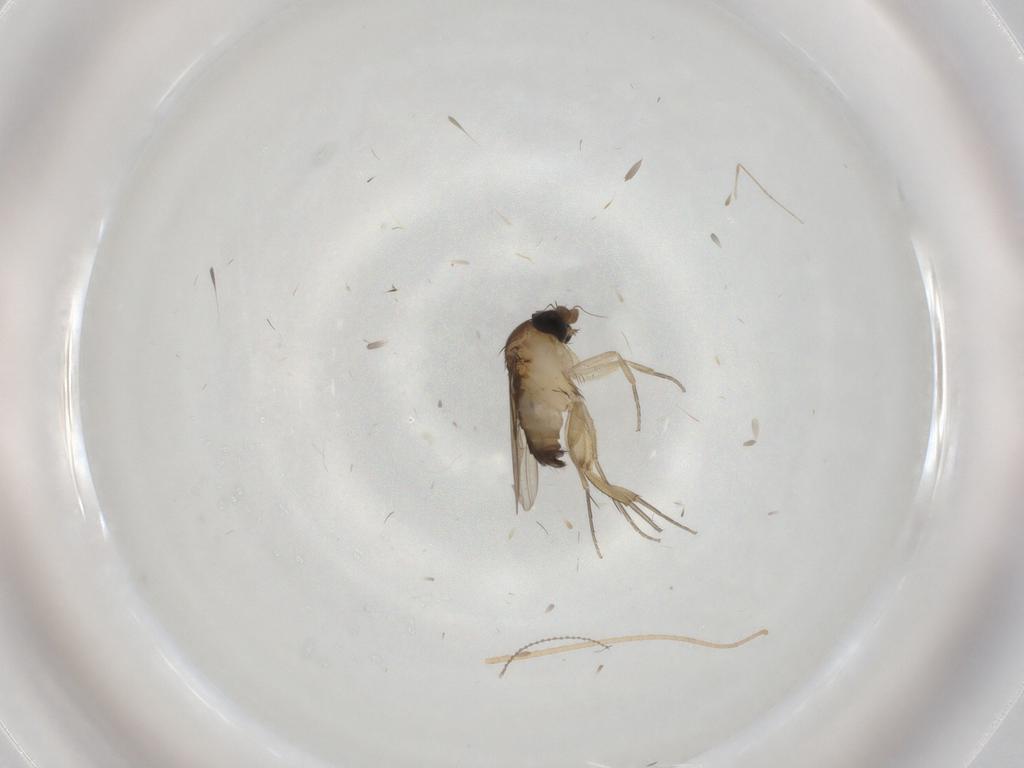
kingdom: Animalia
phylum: Arthropoda
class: Insecta
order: Diptera
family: Phoridae
